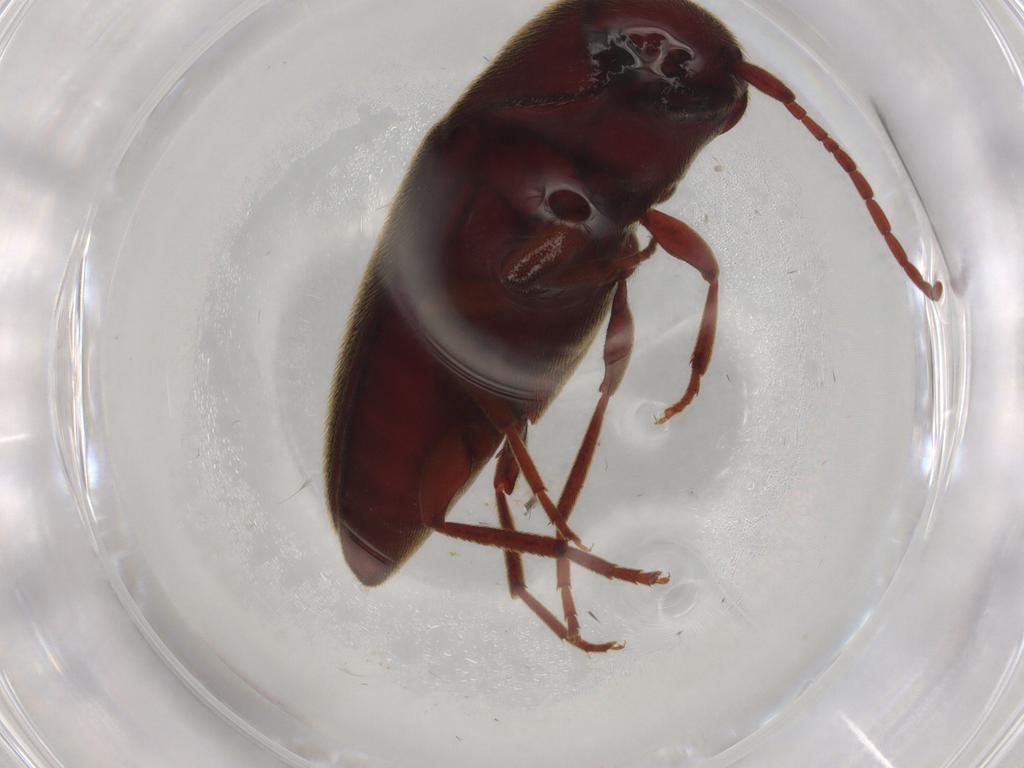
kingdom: Animalia
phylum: Arthropoda
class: Insecta
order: Coleoptera
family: Eucnemidae
